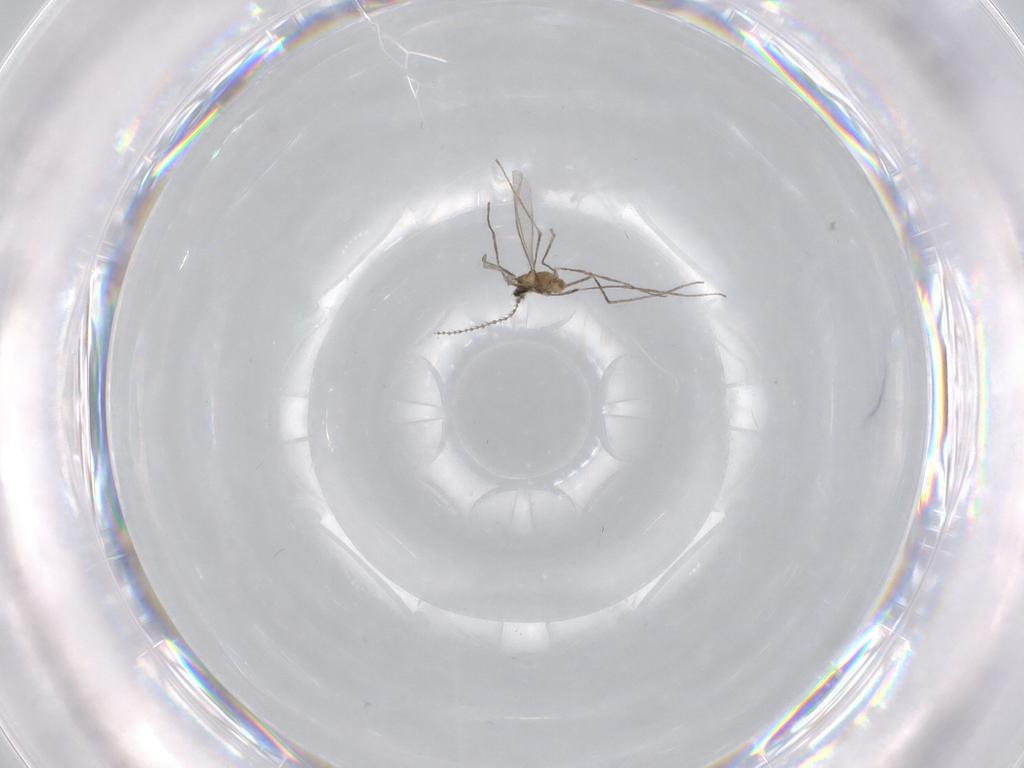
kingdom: Animalia
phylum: Arthropoda
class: Insecta
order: Diptera
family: Cecidomyiidae
